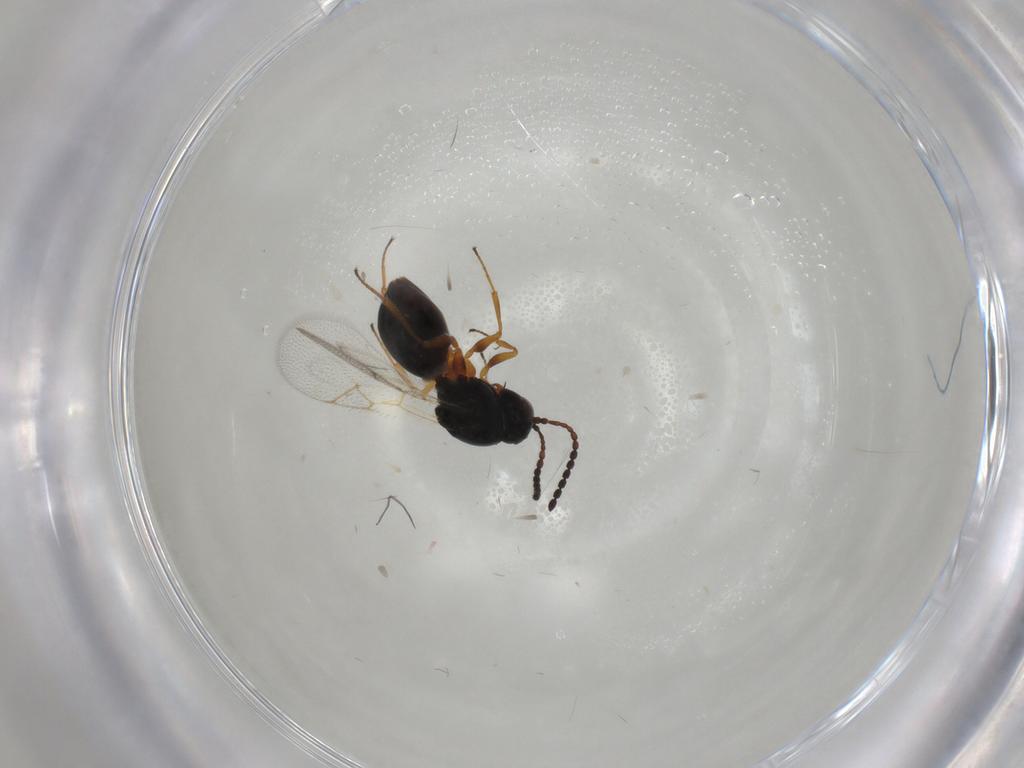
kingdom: Animalia
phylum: Arthropoda
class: Insecta
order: Hymenoptera
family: Figitidae
